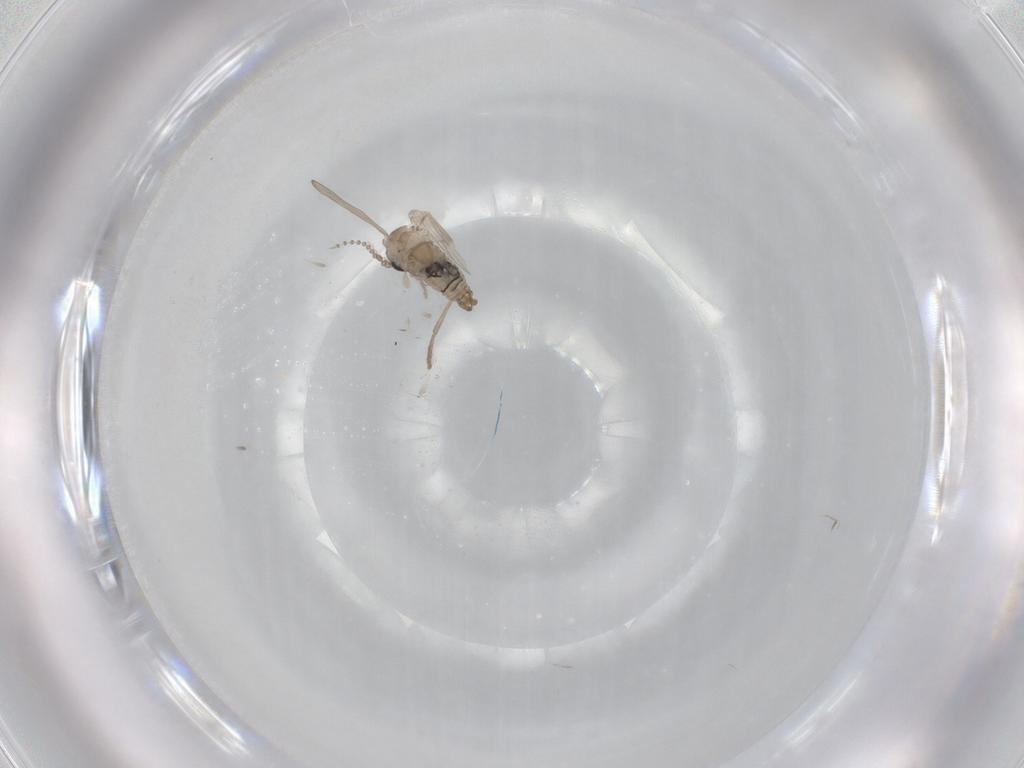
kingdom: Animalia
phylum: Arthropoda
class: Insecta
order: Diptera
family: Psychodidae
